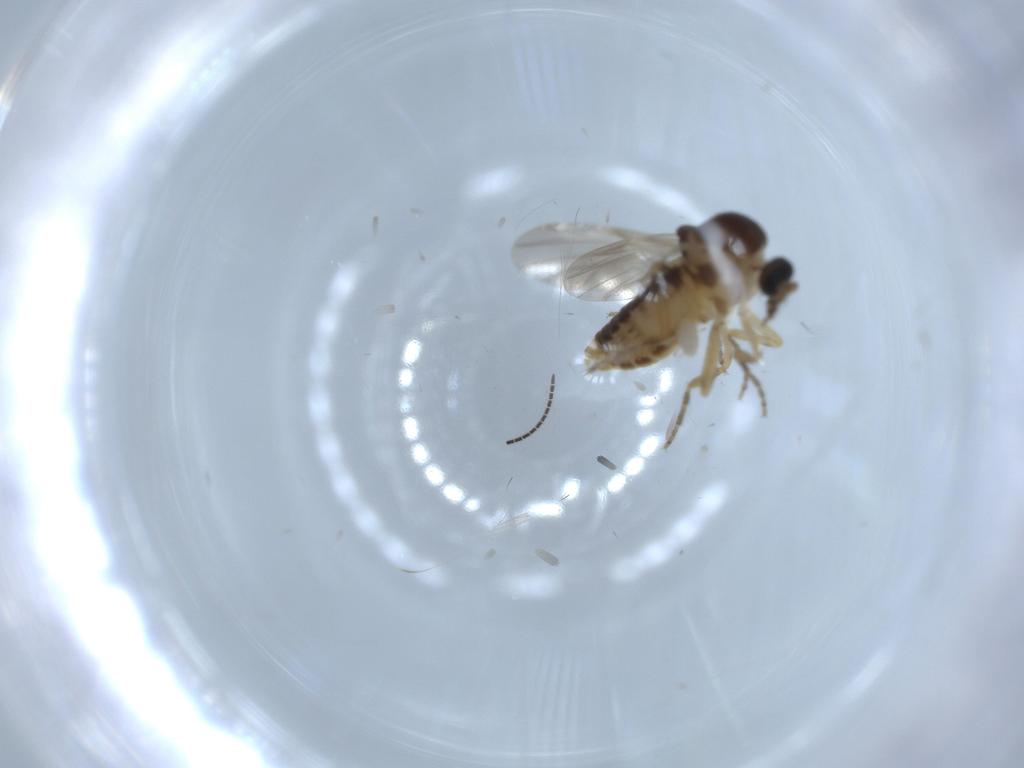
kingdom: Animalia
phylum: Arthropoda
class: Insecta
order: Diptera
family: Ceratopogonidae
